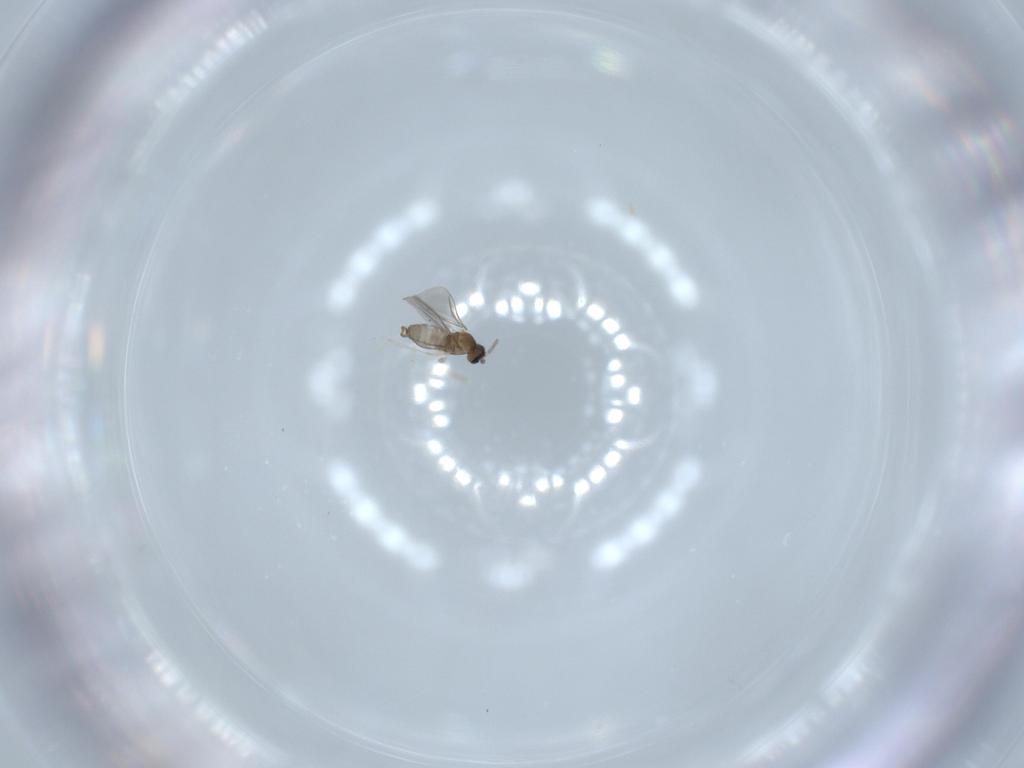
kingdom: Animalia
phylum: Arthropoda
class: Insecta
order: Diptera
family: Cecidomyiidae
